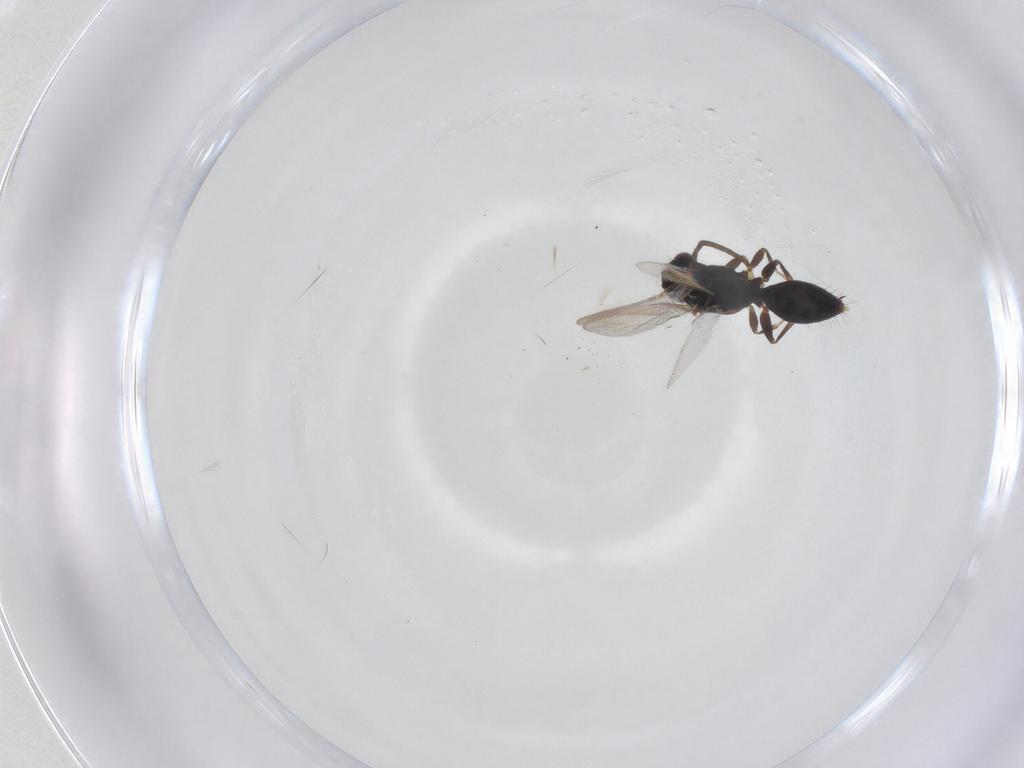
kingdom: Animalia
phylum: Arthropoda
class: Insecta
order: Hymenoptera
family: Bethylidae
